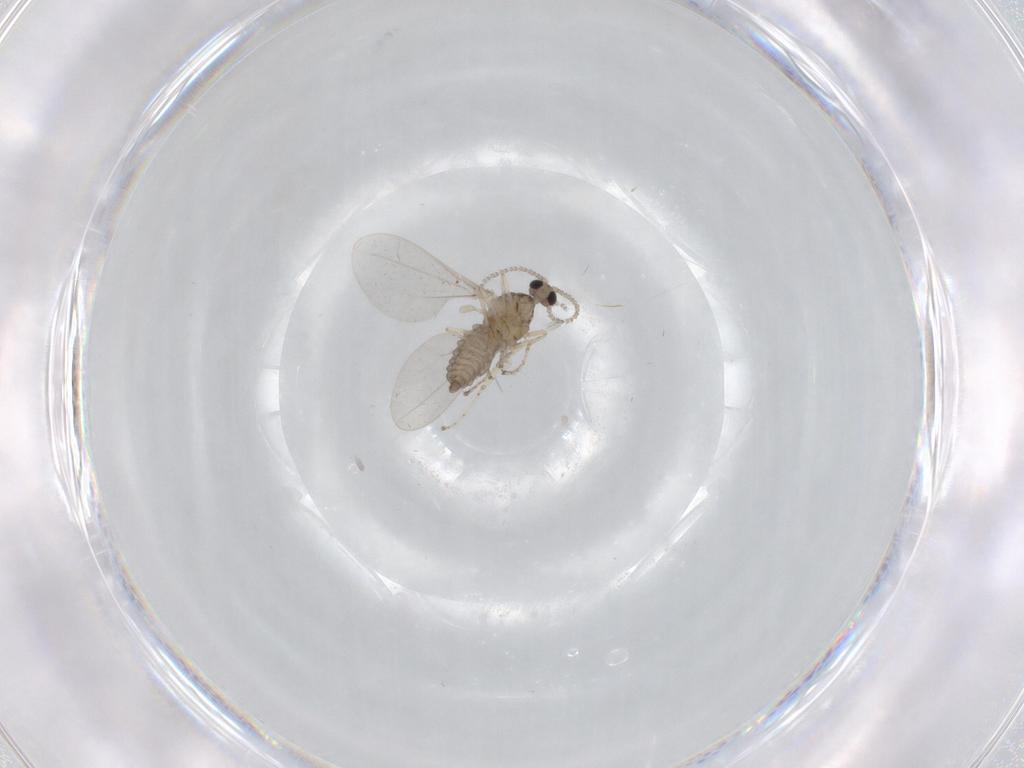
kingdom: Animalia
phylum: Arthropoda
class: Insecta
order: Diptera
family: Cecidomyiidae
